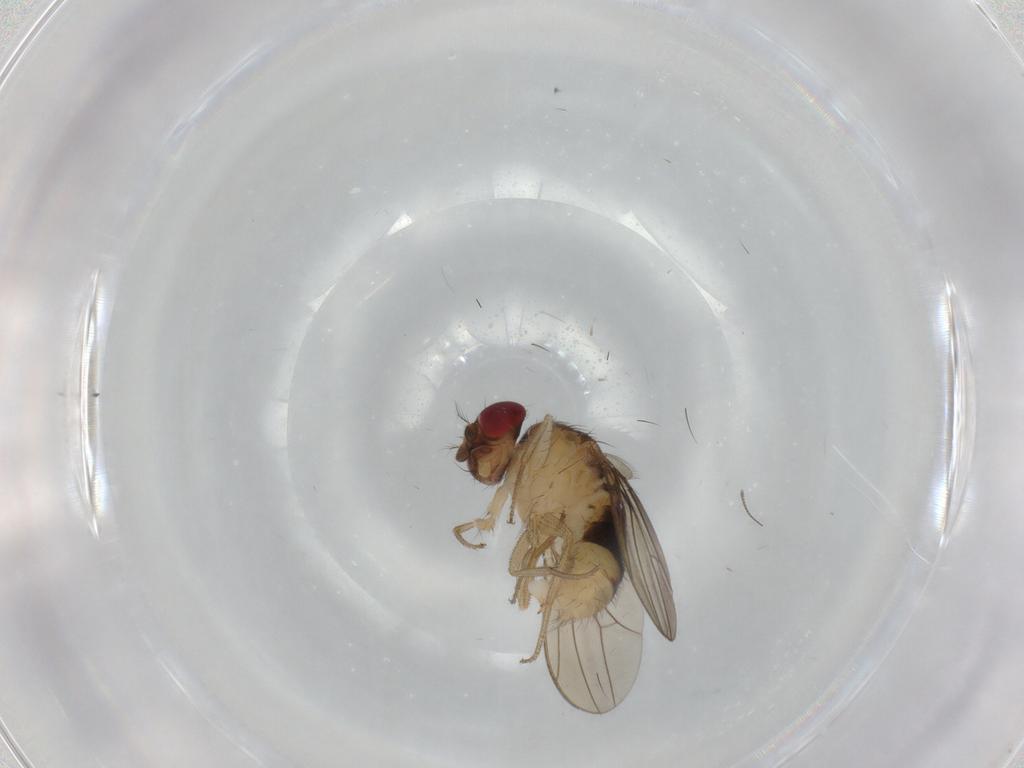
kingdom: Animalia
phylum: Arthropoda
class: Insecta
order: Diptera
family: Drosophilidae
